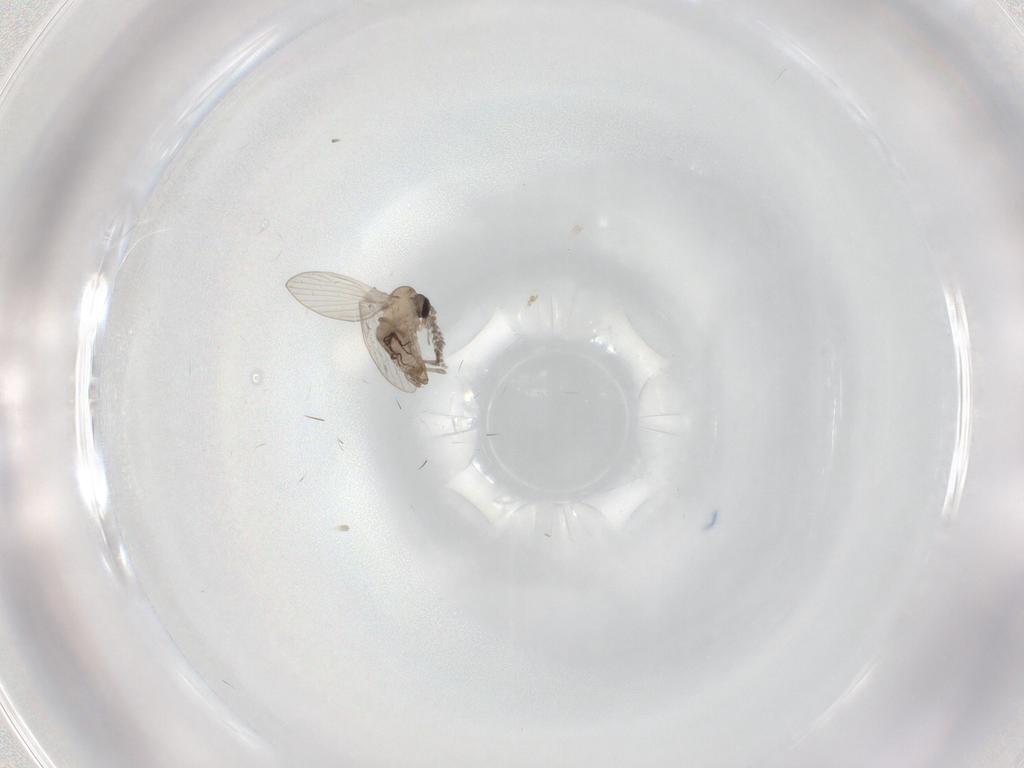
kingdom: Animalia
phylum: Arthropoda
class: Insecta
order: Diptera
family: Psychodidae
